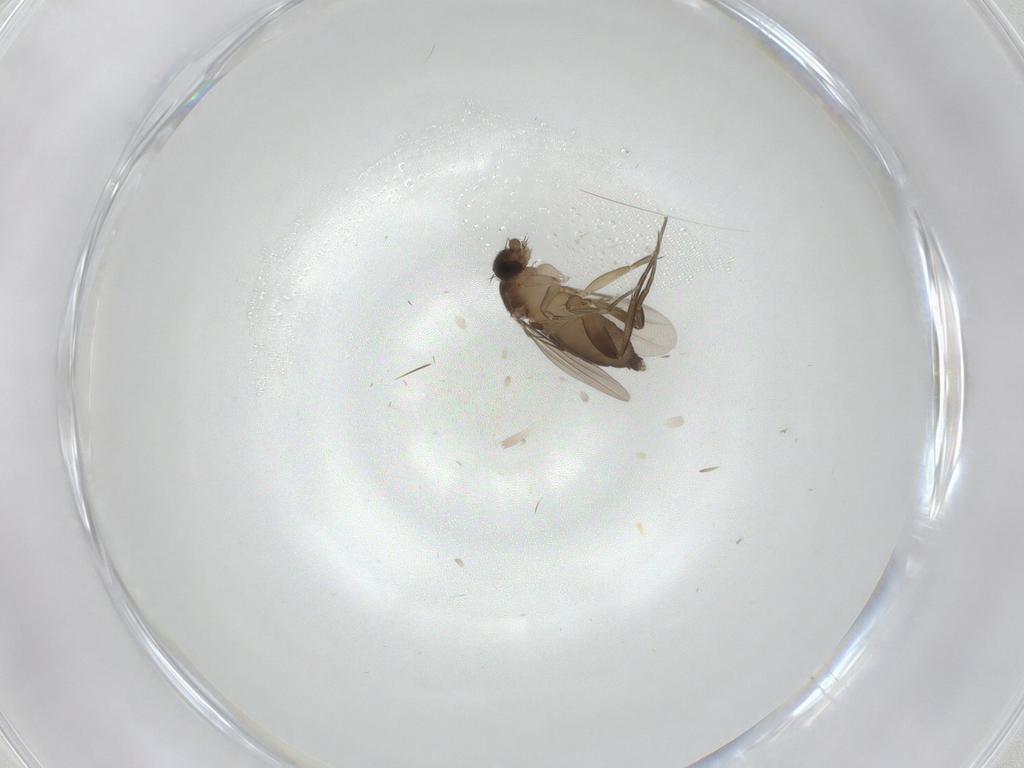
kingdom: Animalia
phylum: Arthropoda
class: Insecta
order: Diptera
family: Phoridae
